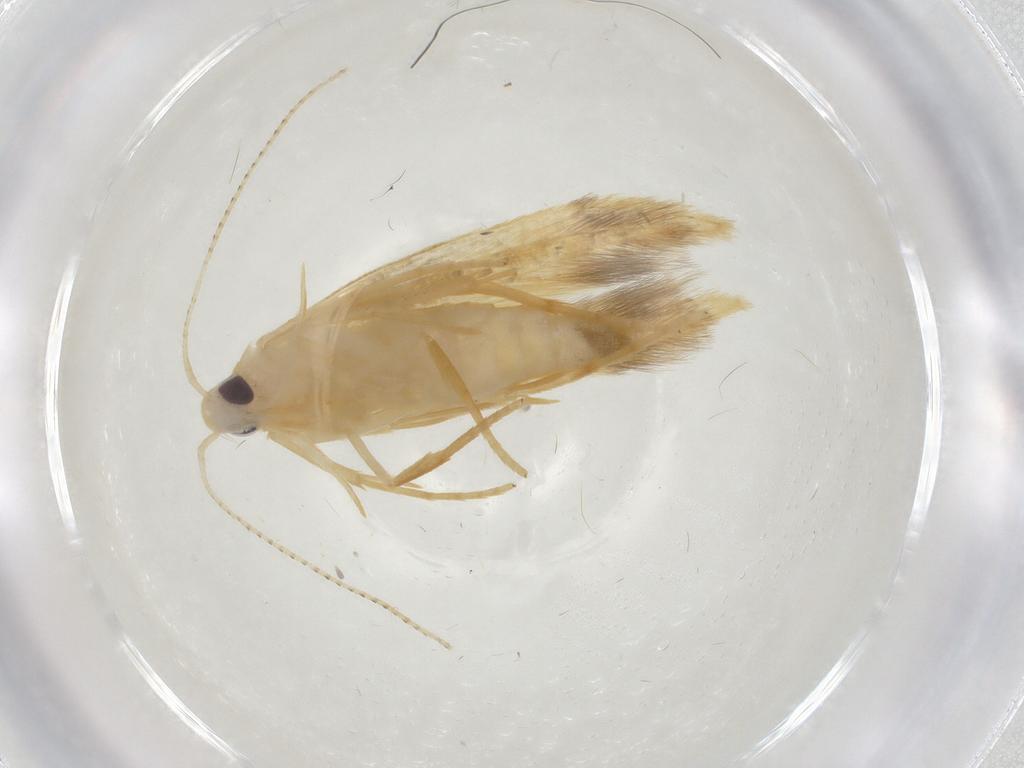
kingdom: Animalia
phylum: Arthropoda
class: Insecta
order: Lepidoptera
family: Oecophoridae
